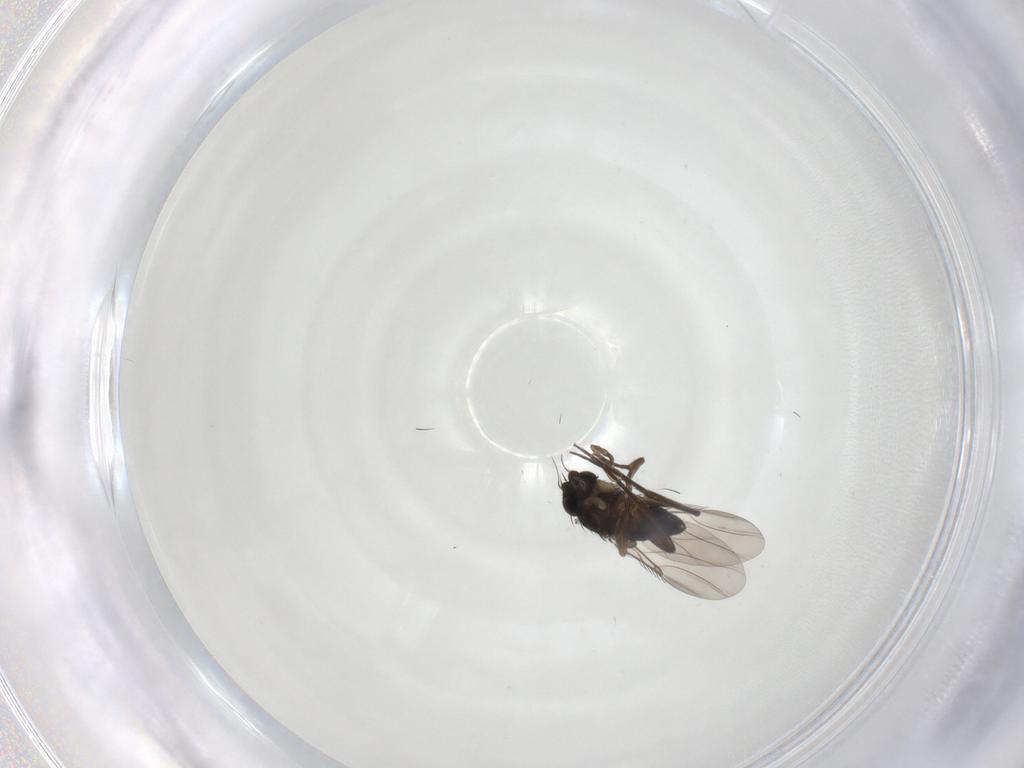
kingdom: Animalia
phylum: Arthropoda
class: Insecta
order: Diptera
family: Phoridae
